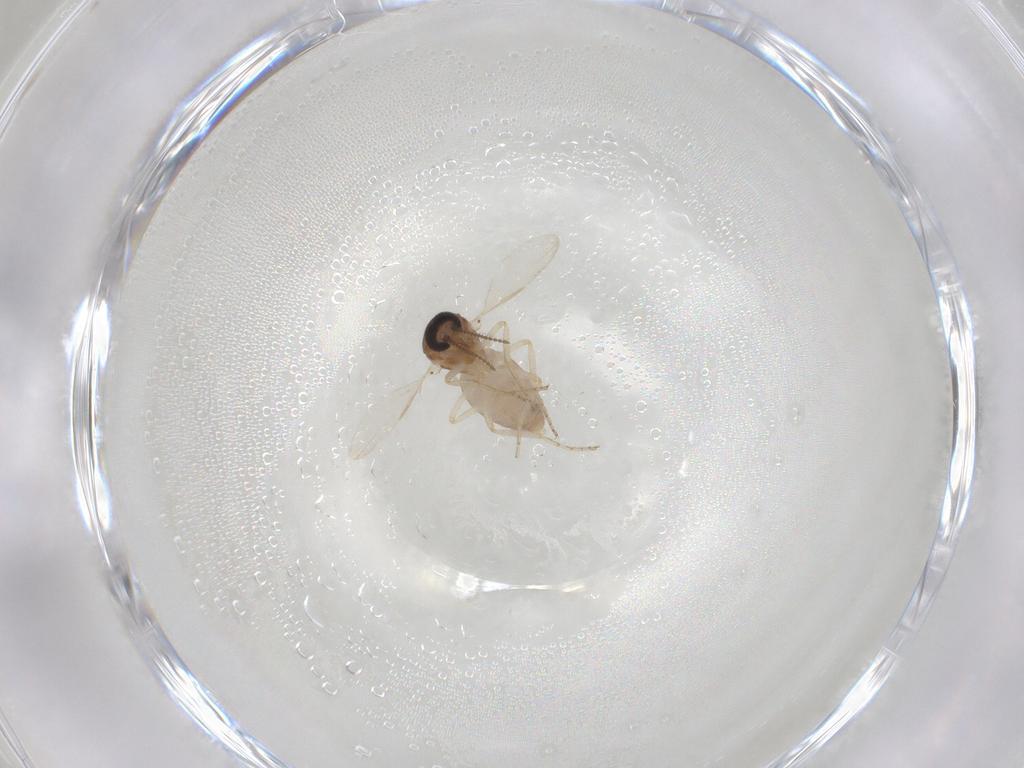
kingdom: Animalia
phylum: Arthropoda
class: Insecta
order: Diptera
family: Ceratopogonidae
